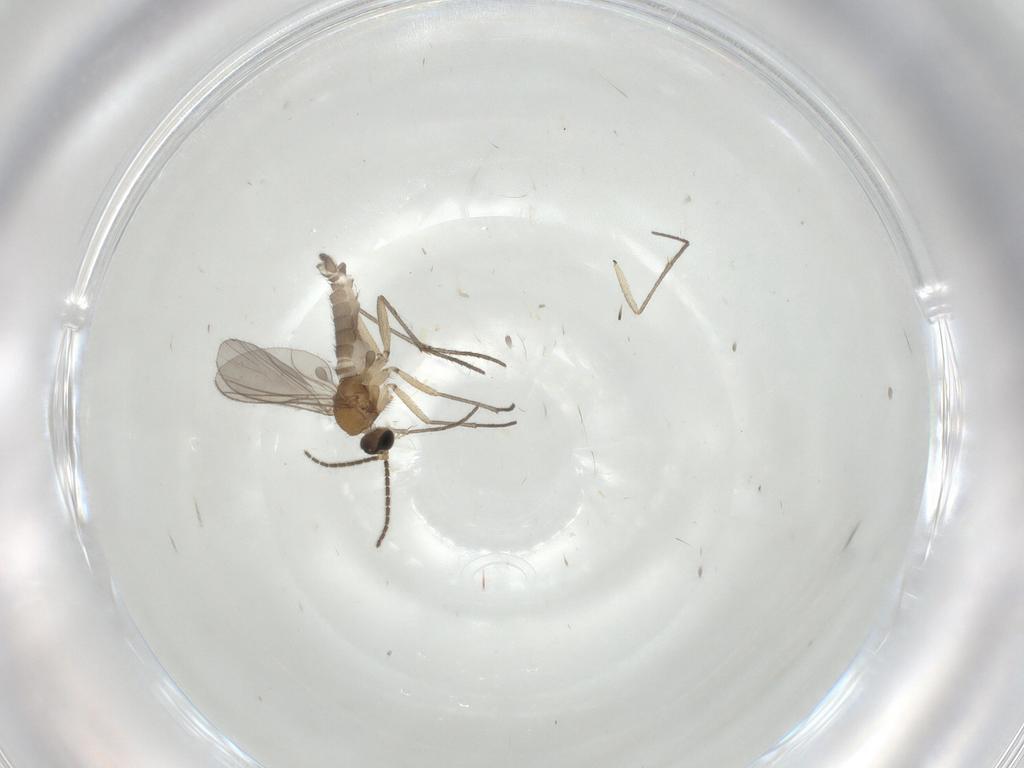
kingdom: Animalia
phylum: Arthropoda
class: Insecta
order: Diptera
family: Sciaridae
